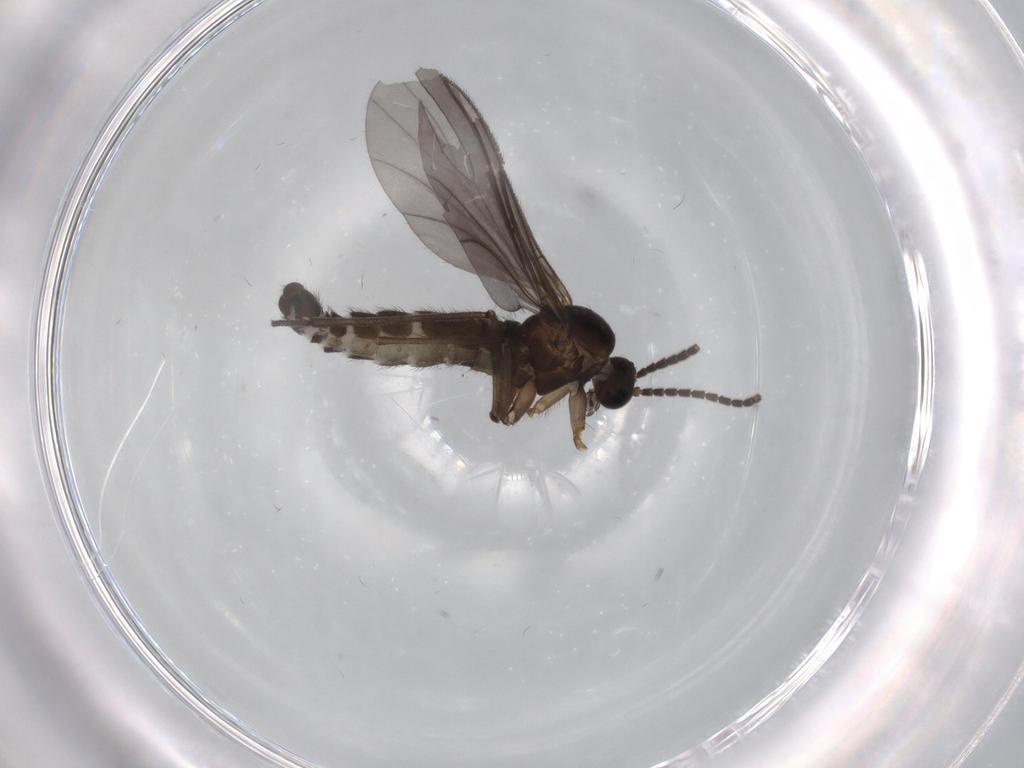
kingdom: Animalia
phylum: Arthropoda
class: Insecta
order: Diptera
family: Sciaridae
